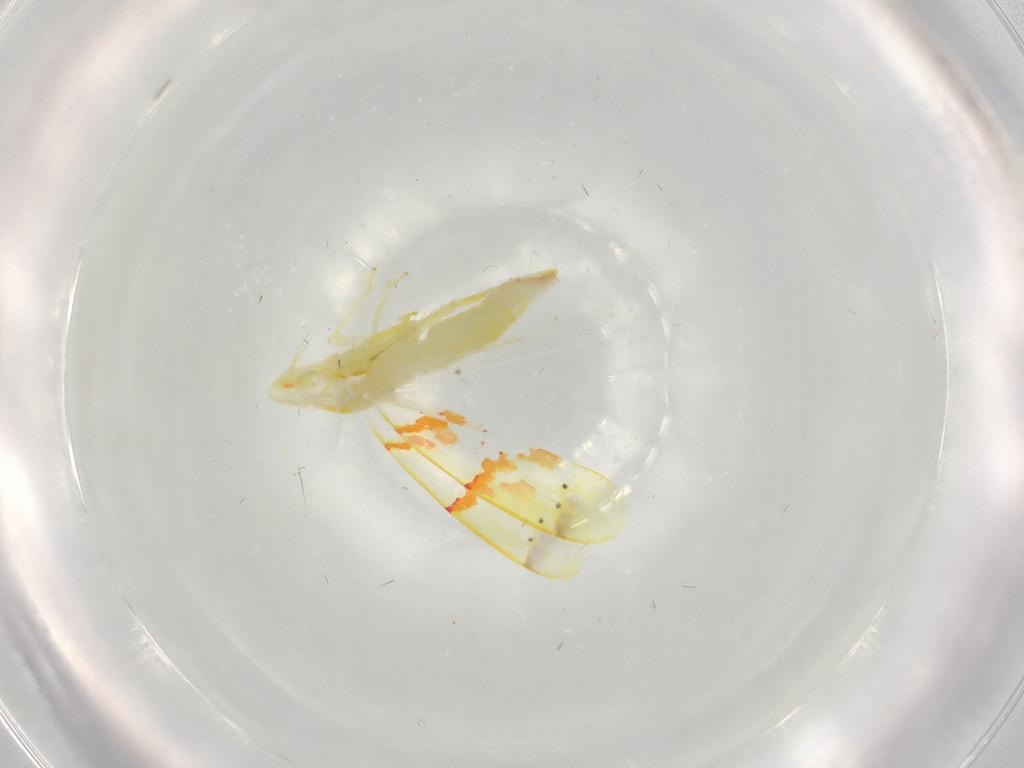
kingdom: Animalia
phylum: Arthropoda
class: Insecta
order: Hemiptera
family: Cicadellidae
